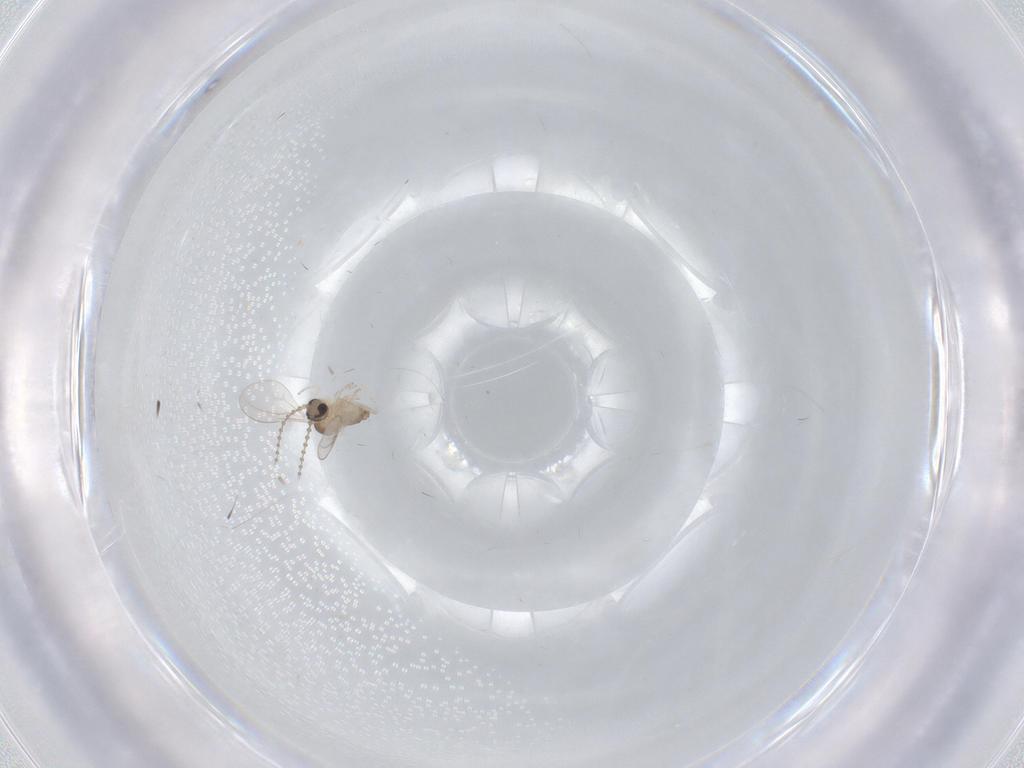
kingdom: Animalia
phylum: Arthropoda
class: Insecta
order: Diptera
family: Cecidomyiidae
